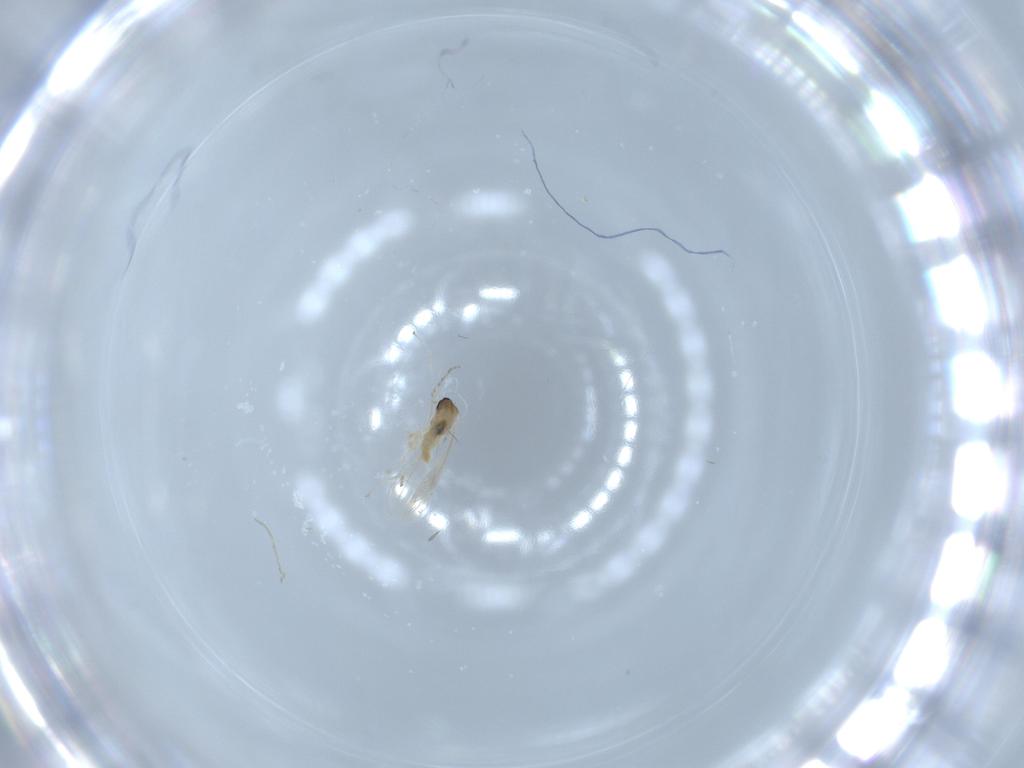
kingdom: Animalia
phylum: Arthropoda
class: Insecta
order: Diptera
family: Cecidomyiidae
